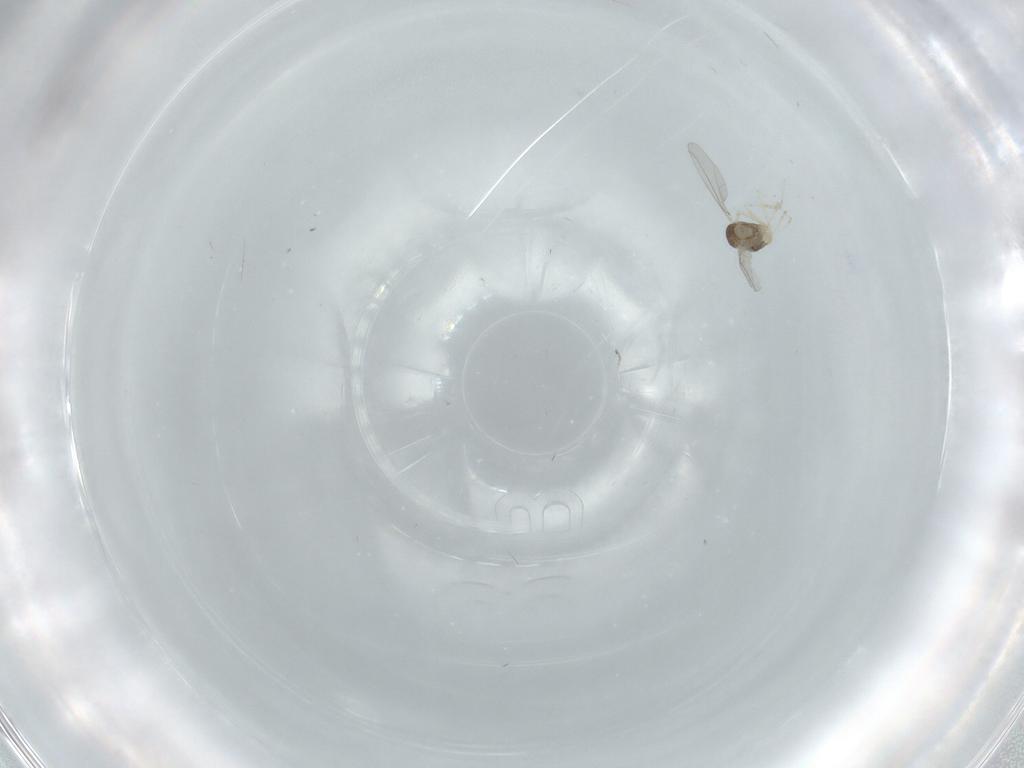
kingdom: Animalia
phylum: Arthropoda
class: Insecta
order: Diptera
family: Cecidomyiidae
